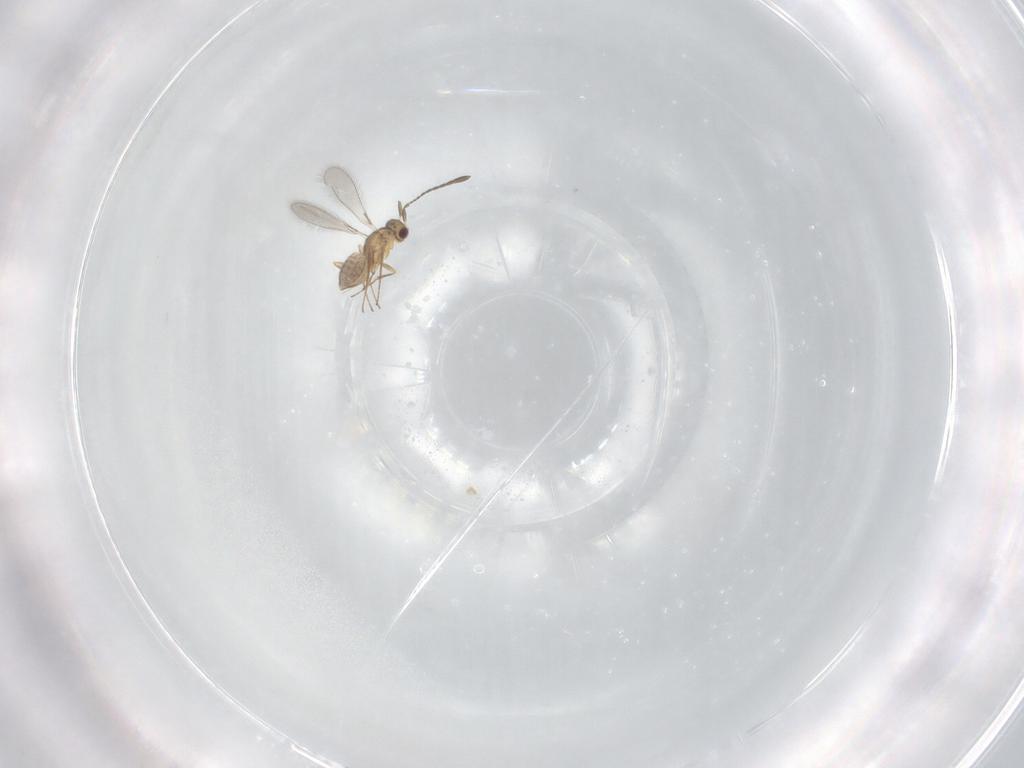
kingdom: Animalia
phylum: Arthropoda
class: Insecta
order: Hymenoptera
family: Mymaridae
